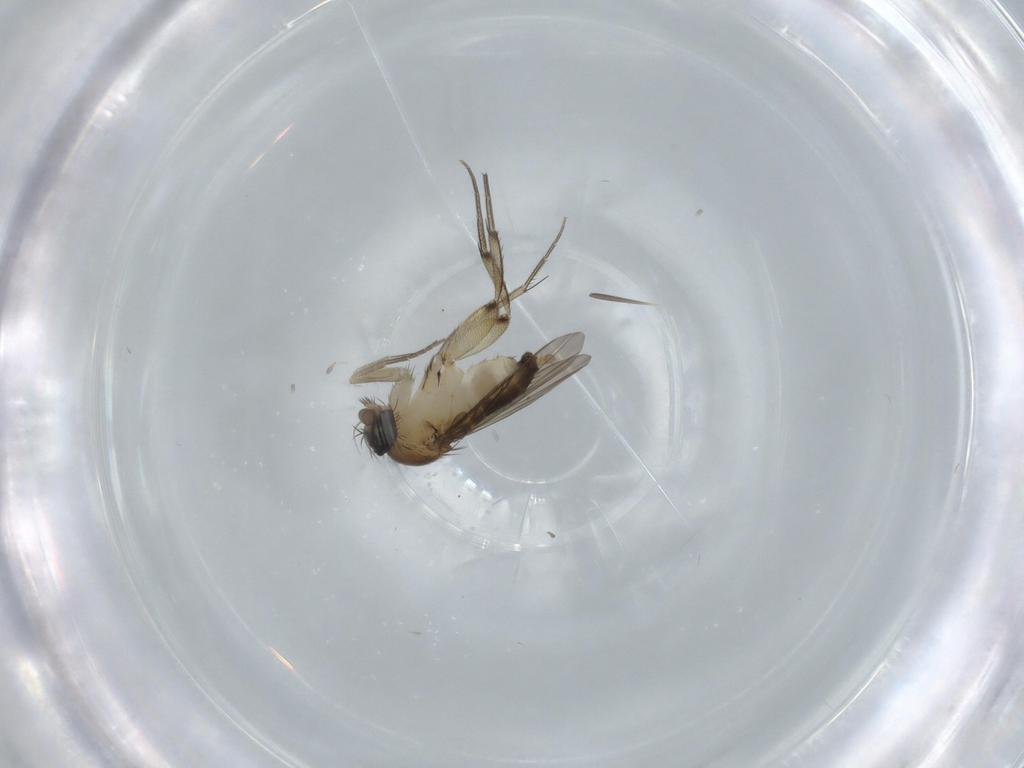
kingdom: Animalia
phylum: Arthropoda
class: Insecta
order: Diptera
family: Phoridae
